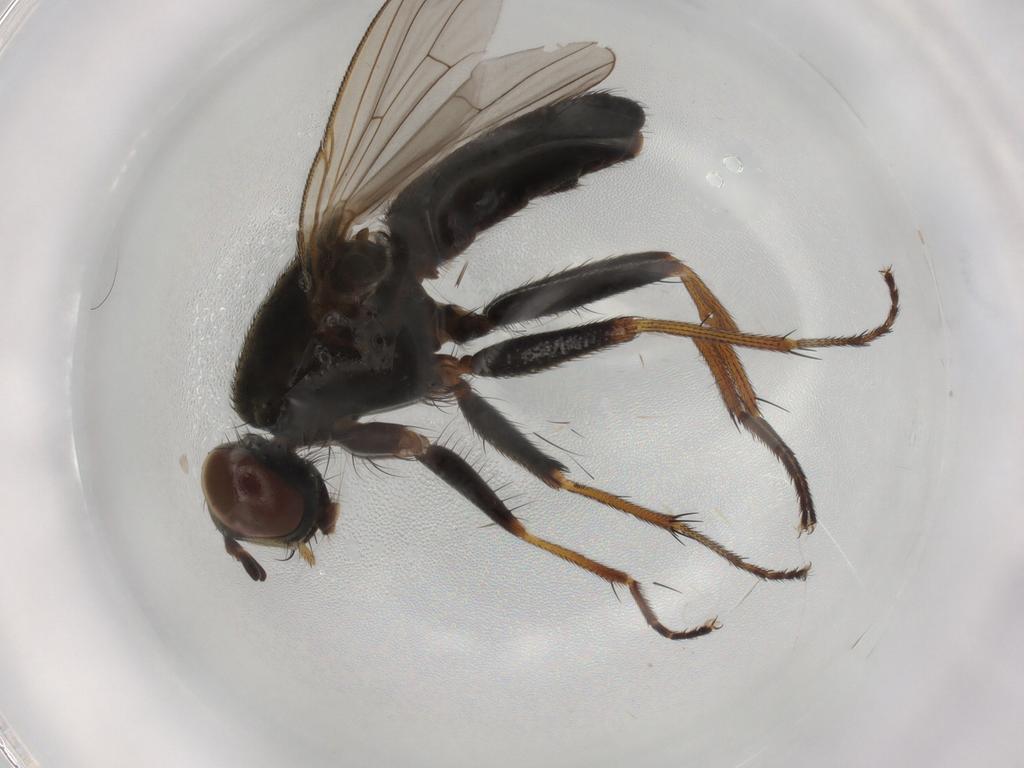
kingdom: Animalia
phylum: Arthropoda
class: Insecta
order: Diptera
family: Muscidae
